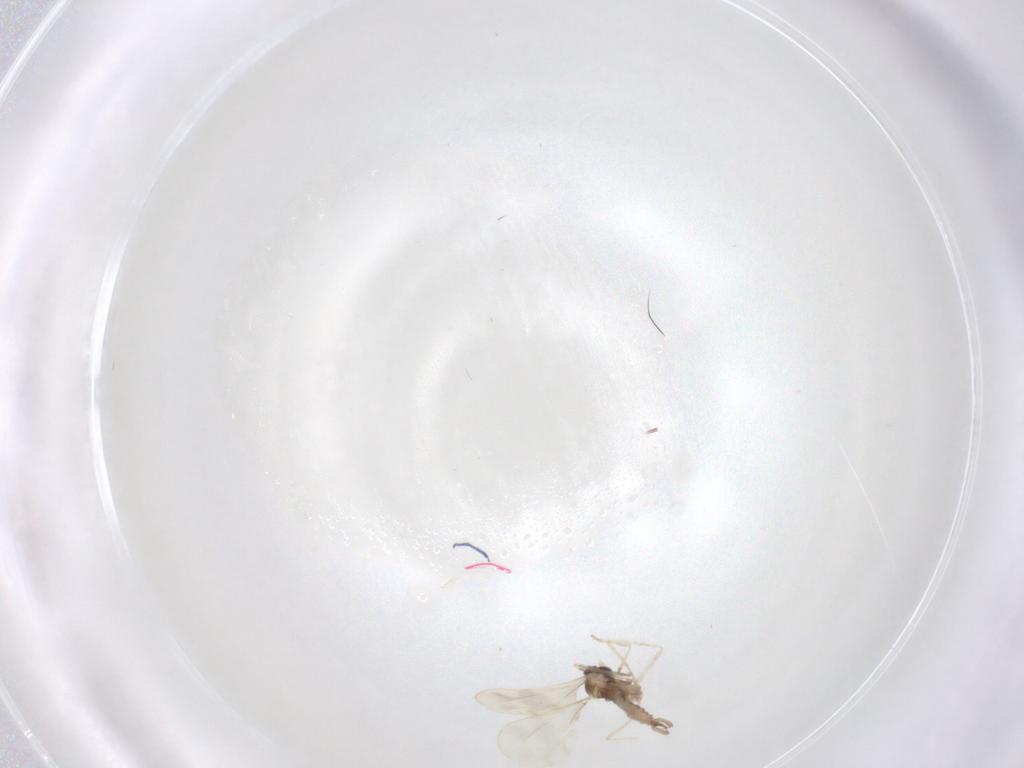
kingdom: Animalia
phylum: Arthropoda
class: Insecta
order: Diptera
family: Cecidomyiidae
